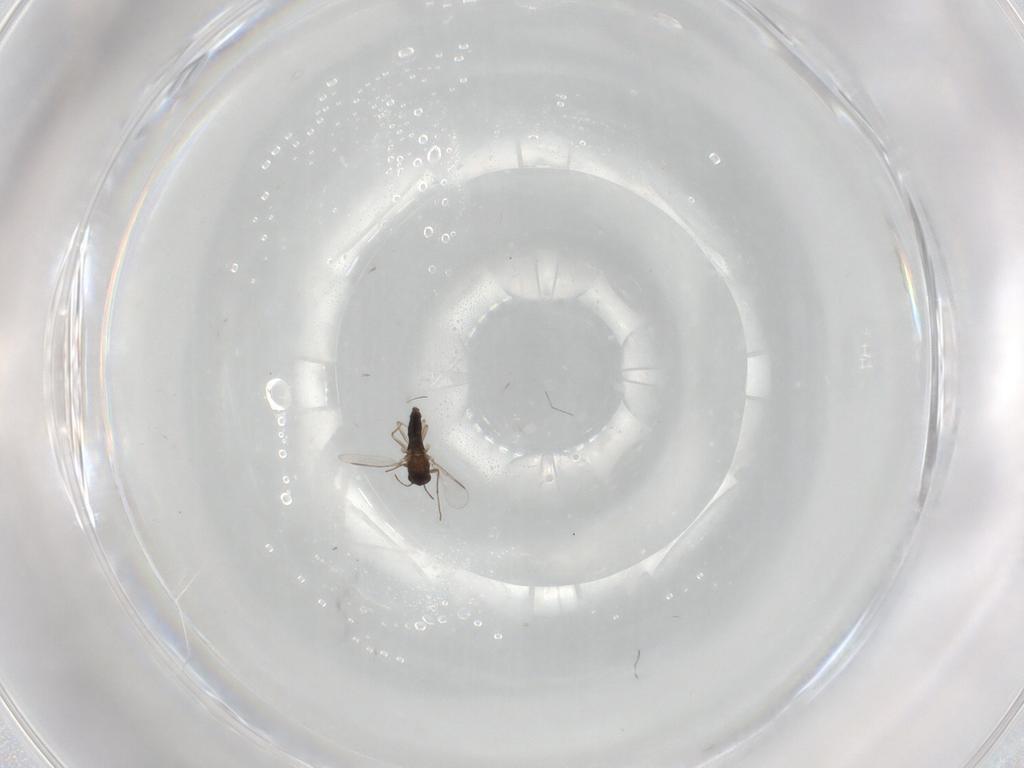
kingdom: Animalia
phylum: Arthropoda
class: Insecta
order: Diptera
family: Chironomidae
